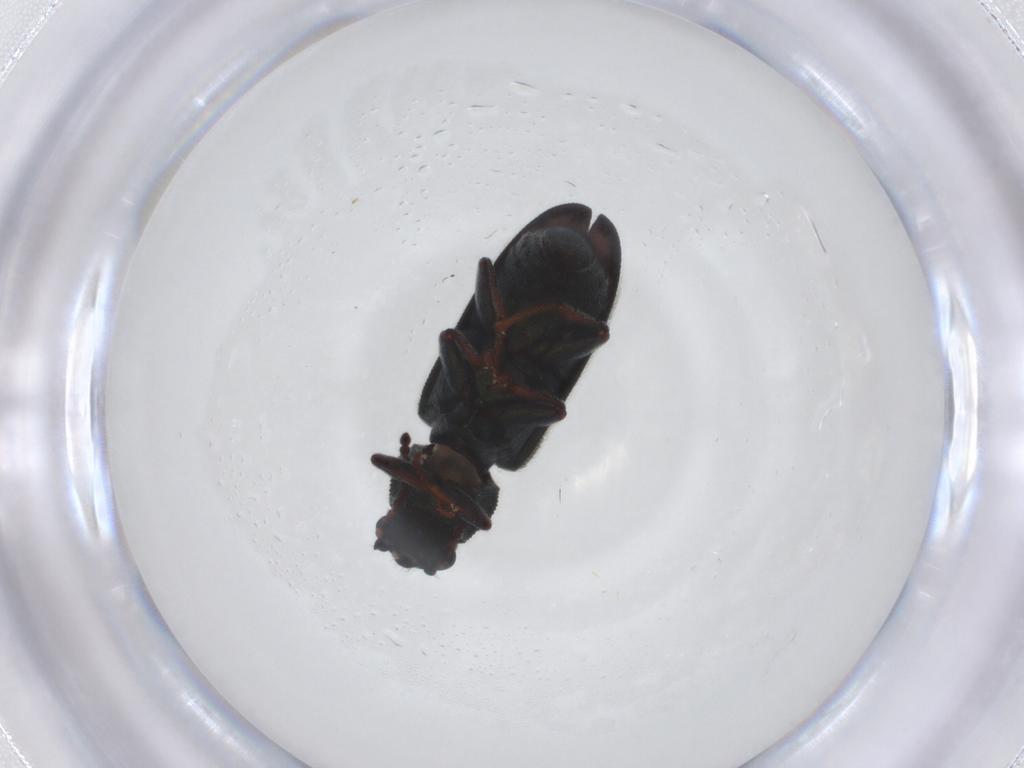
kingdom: Animalia
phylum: Arthropoda
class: Insecta
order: Coleoptera
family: Melyridae
